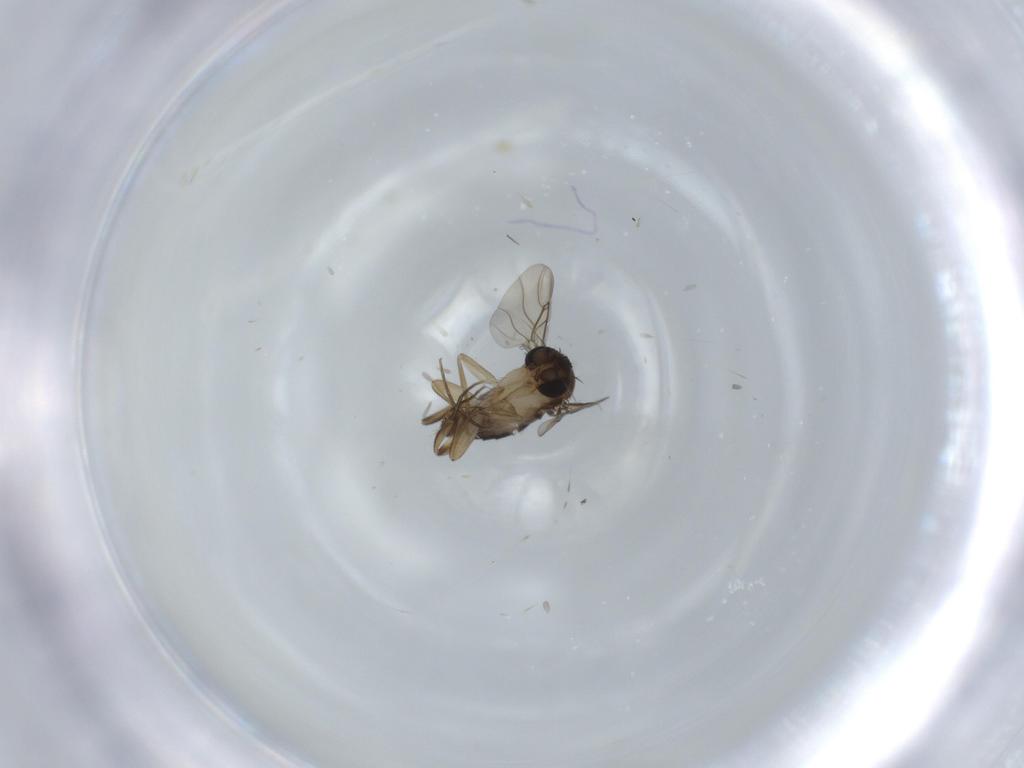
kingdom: Animalia
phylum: Arthropoda
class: Insecta
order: Diptera
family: Phoridae
